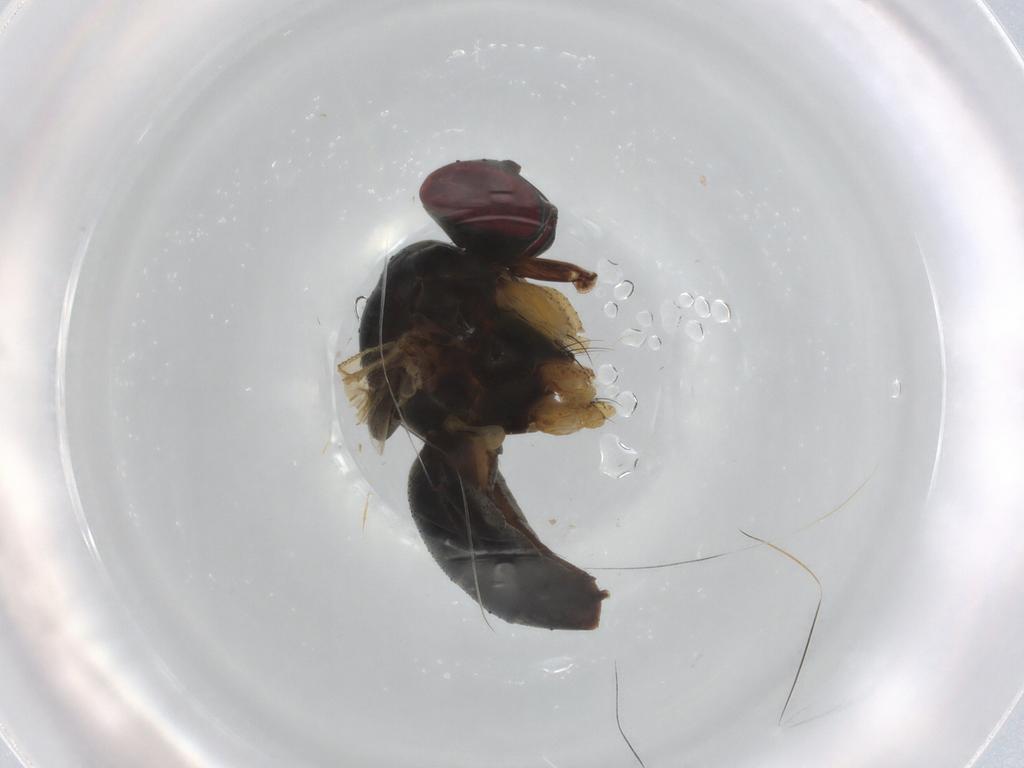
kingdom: Animalia
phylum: Arthropoda
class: Insecta
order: Diptera
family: Muscidae
